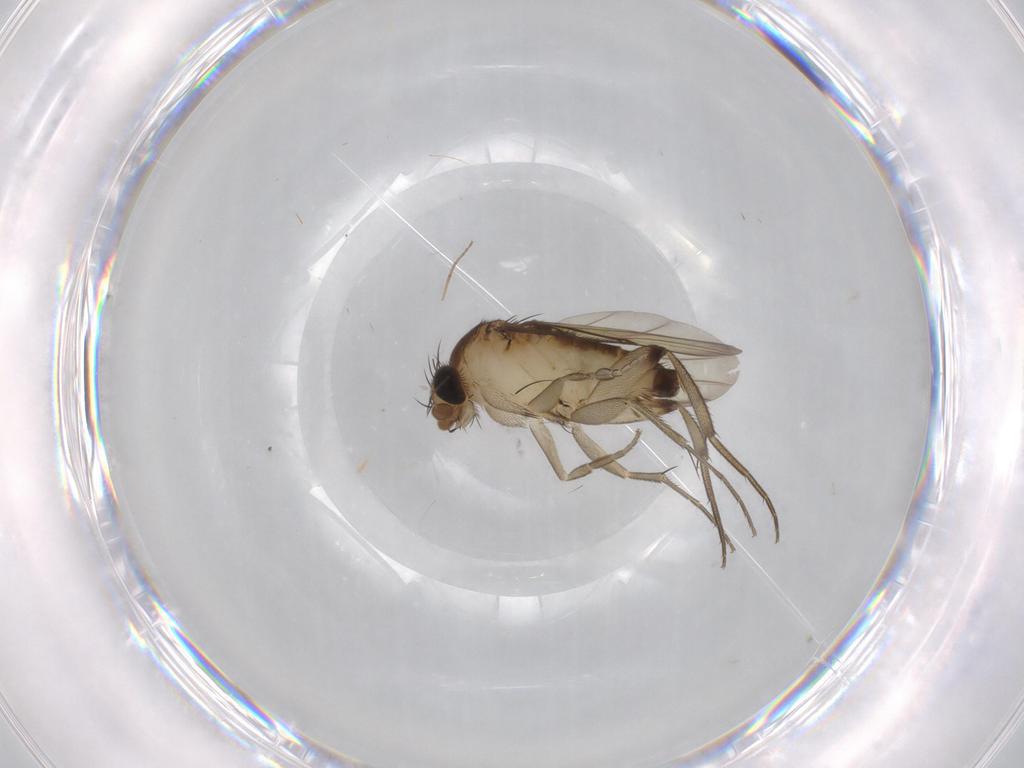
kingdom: Animalia
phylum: Arthropoda
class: Insecta
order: Diptera
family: Phoridae
